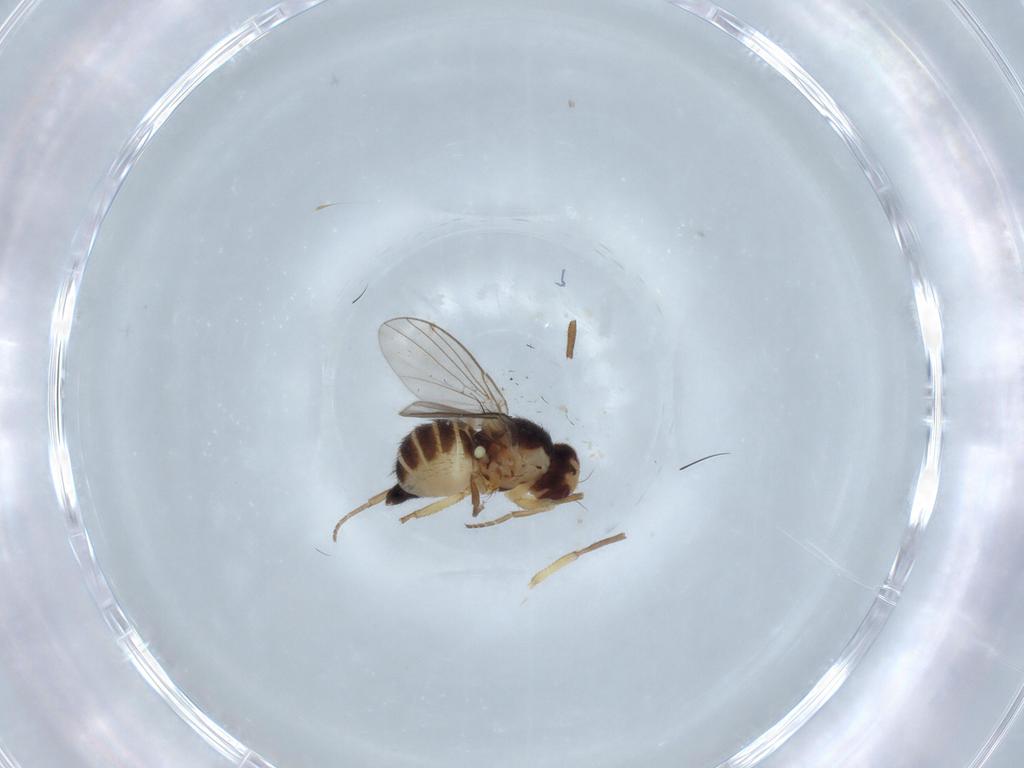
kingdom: Animalia
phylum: Arthropoda
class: Insecta
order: Diptera
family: Agromyzidae
